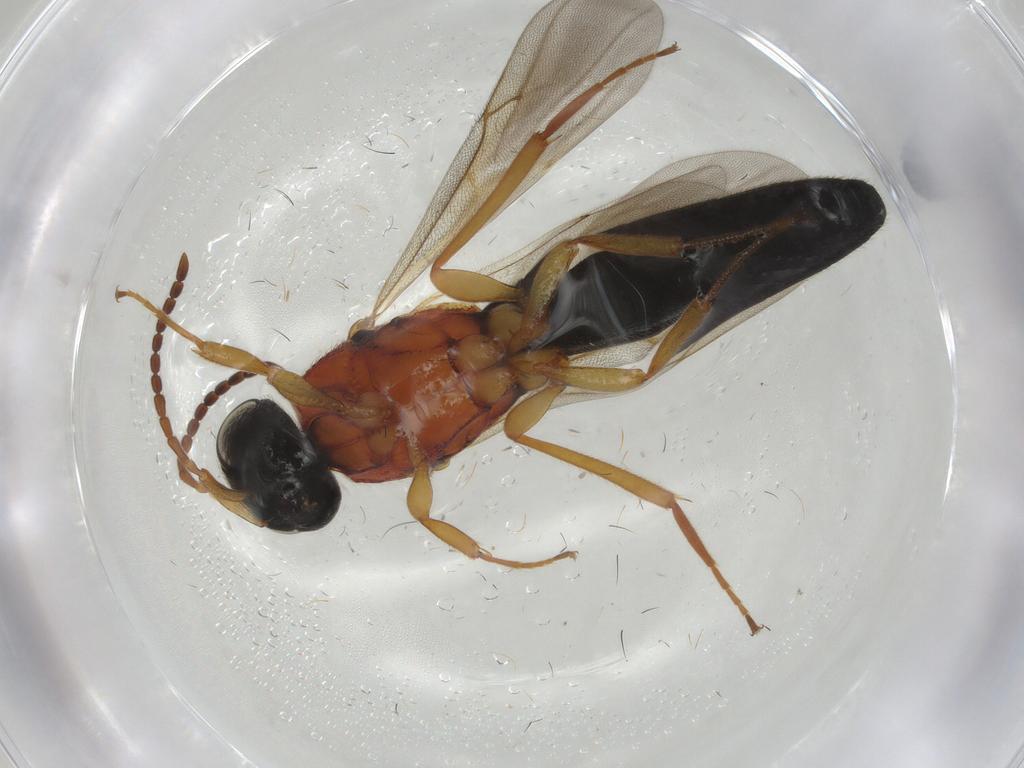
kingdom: Animalia
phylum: Arthropoda
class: Insecta
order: Hymenoptera
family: Scelionidae
